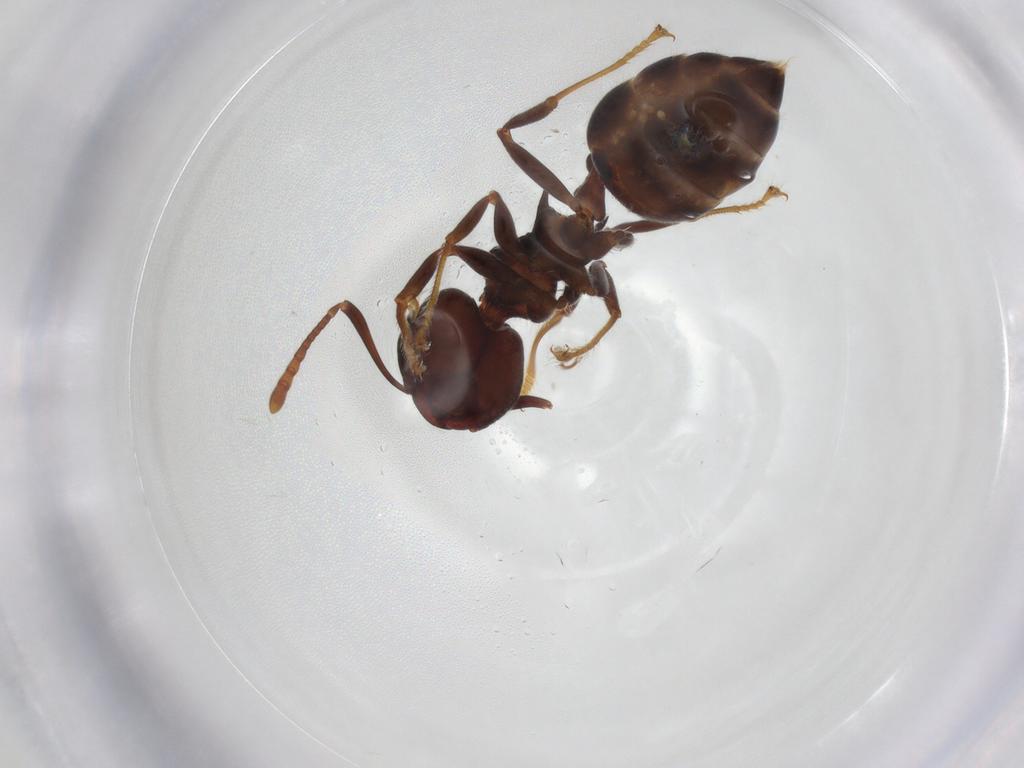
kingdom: Animalia
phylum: Arthropoda
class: Insecta
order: Hymenoptera
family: Formicidae
